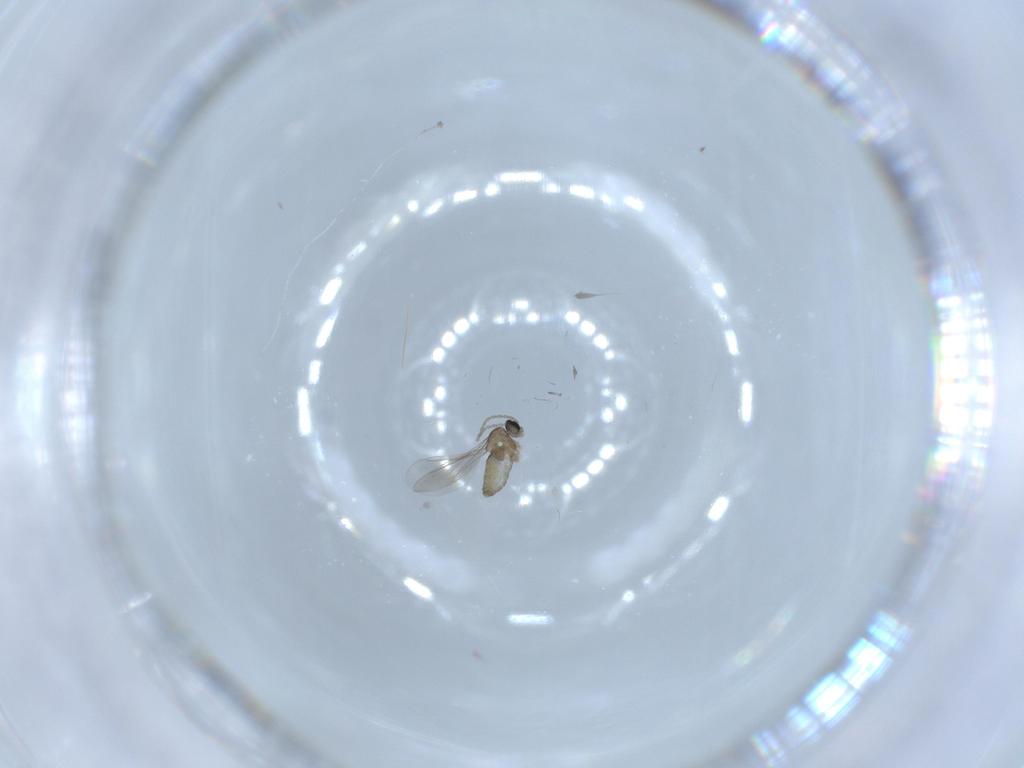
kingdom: Animalia
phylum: Arthropoda
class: Insecta
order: Diptera
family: Cecidomyiidae
